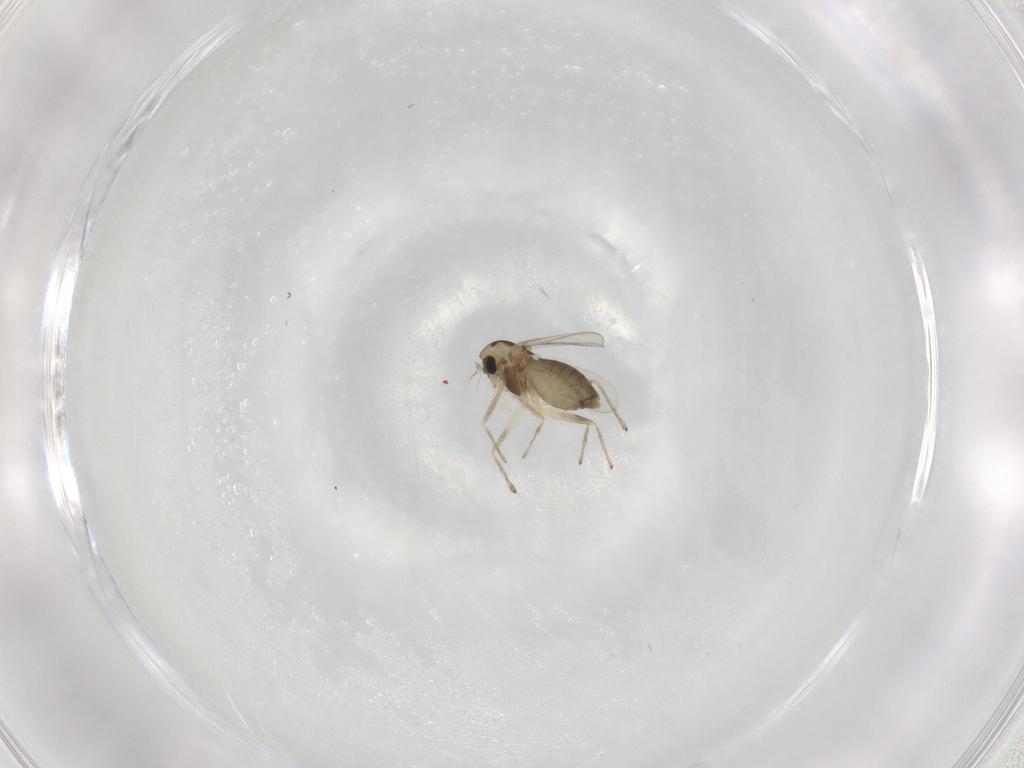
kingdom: Animalia
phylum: Arthropoda
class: Insecta
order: Diptera
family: Chironomidae
